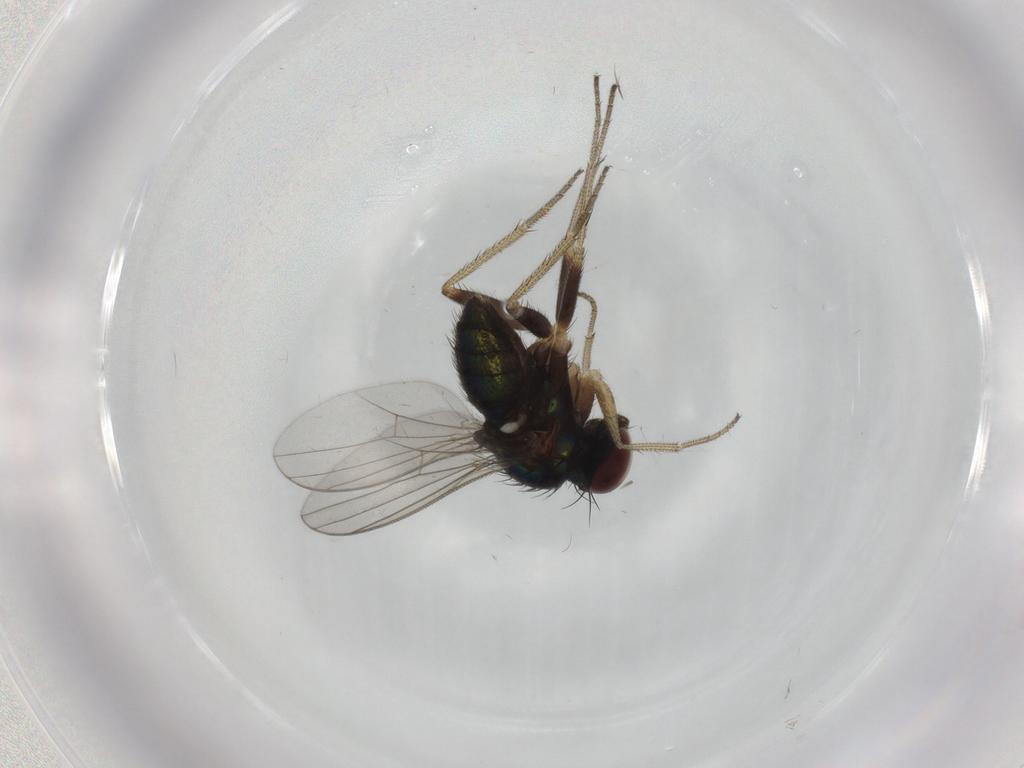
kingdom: Animalia
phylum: Arthropoda
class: Insecta
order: Diptera
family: Dolichopodidae
